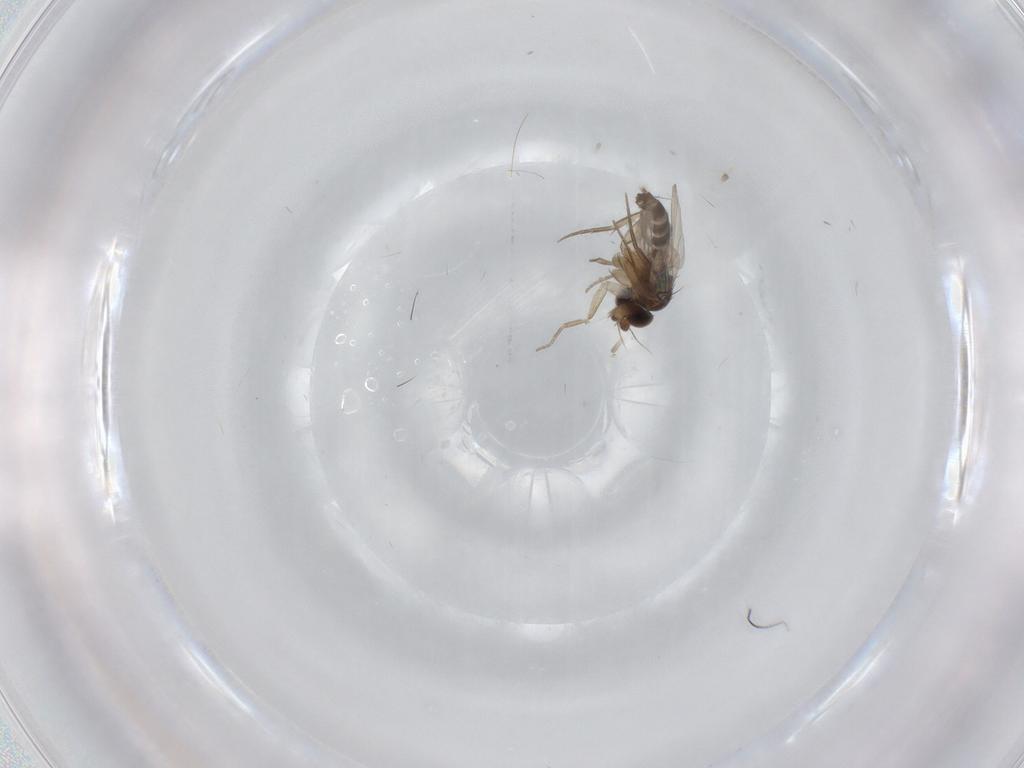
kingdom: Animalia
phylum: Arthropoda
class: Insecta
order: Diptera
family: Phoridae
